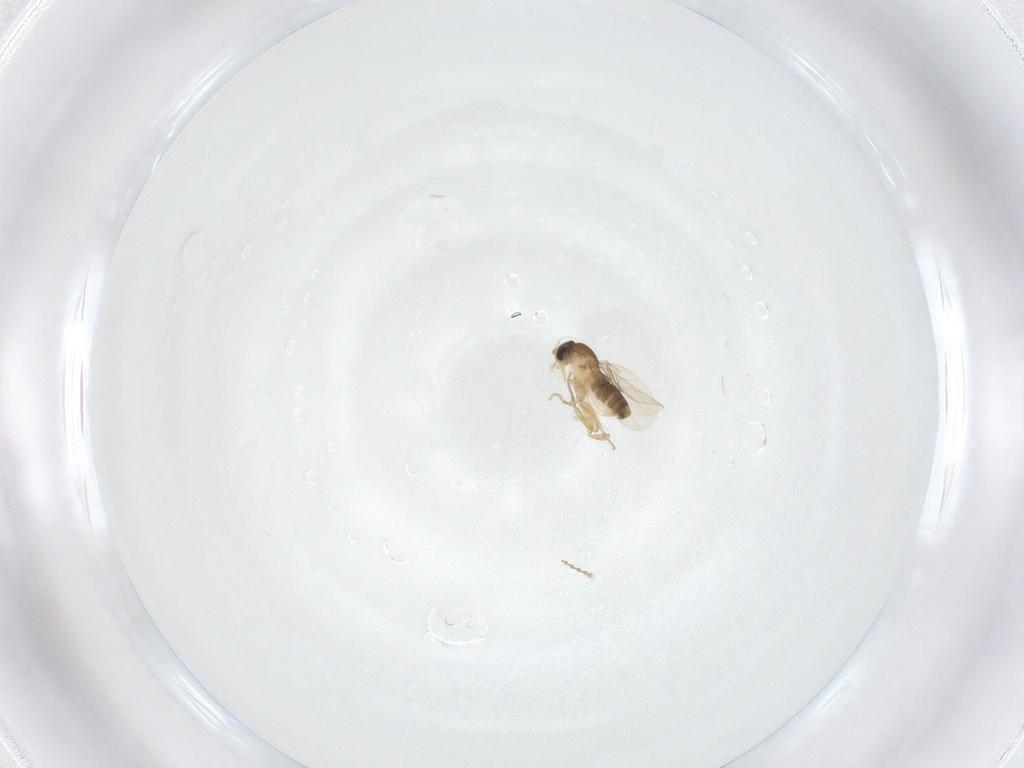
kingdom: Animalia
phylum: Arthropoda
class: Insecta
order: Diptera
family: Phoridae
